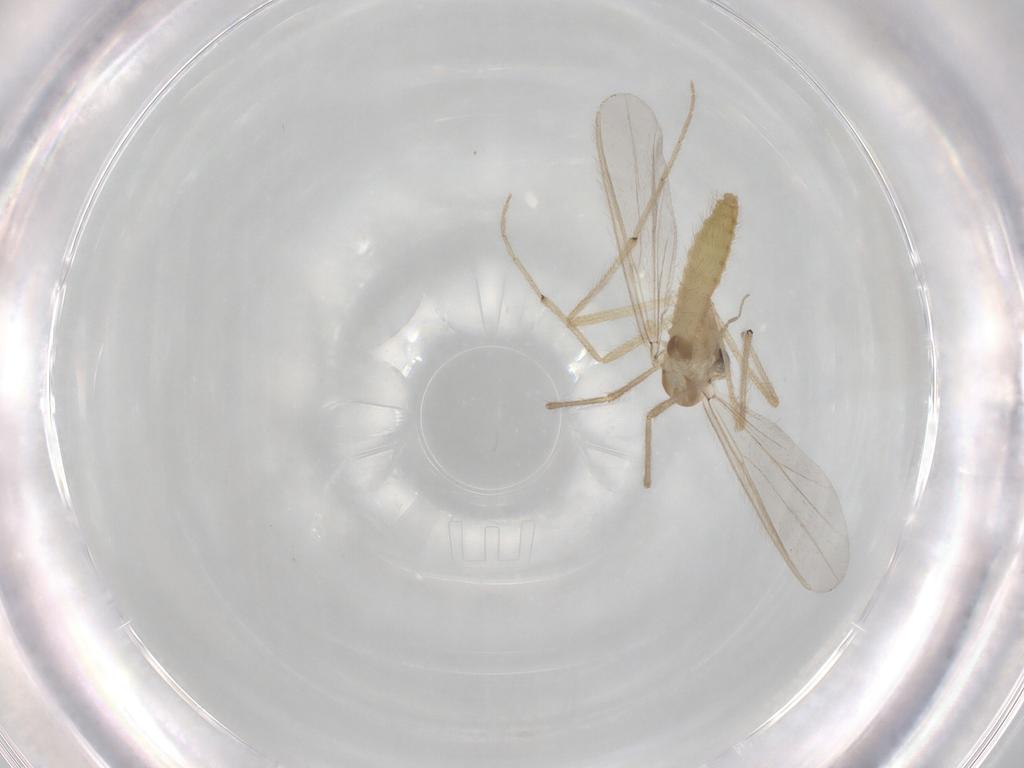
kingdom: Animalia
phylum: Arthropoda
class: Insecta
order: Diptera
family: Chironomidae
